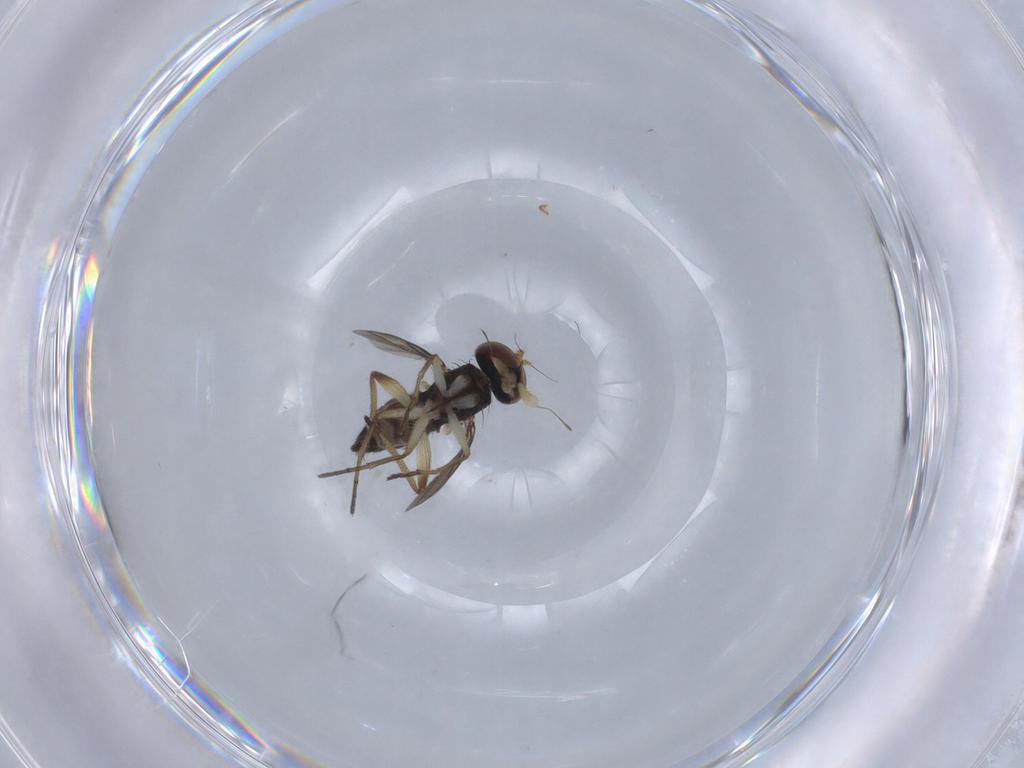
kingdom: Animalia
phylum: Arthropoda
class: Insecta
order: Diptera
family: Dolichopodidae
